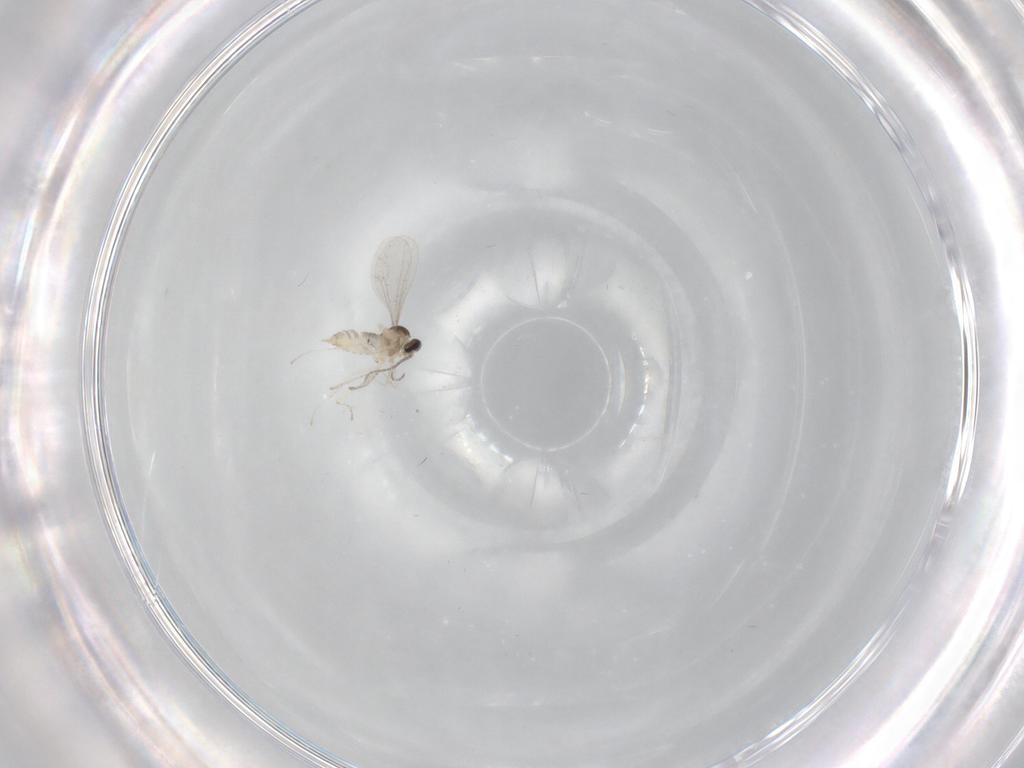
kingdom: Animalia
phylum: Arthropoda
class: Insecta
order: Diptera
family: Cecidomyiidae
